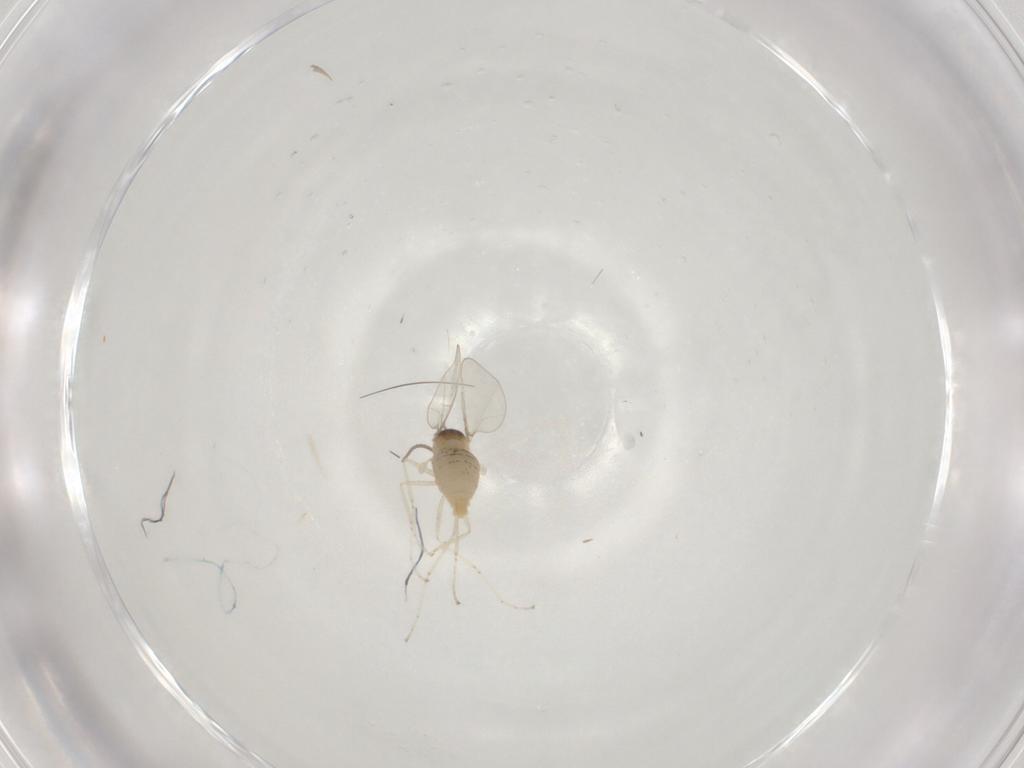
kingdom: Animalia
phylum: Arthropoda
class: Insecta
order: Diptera
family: Cecidomyiidae
